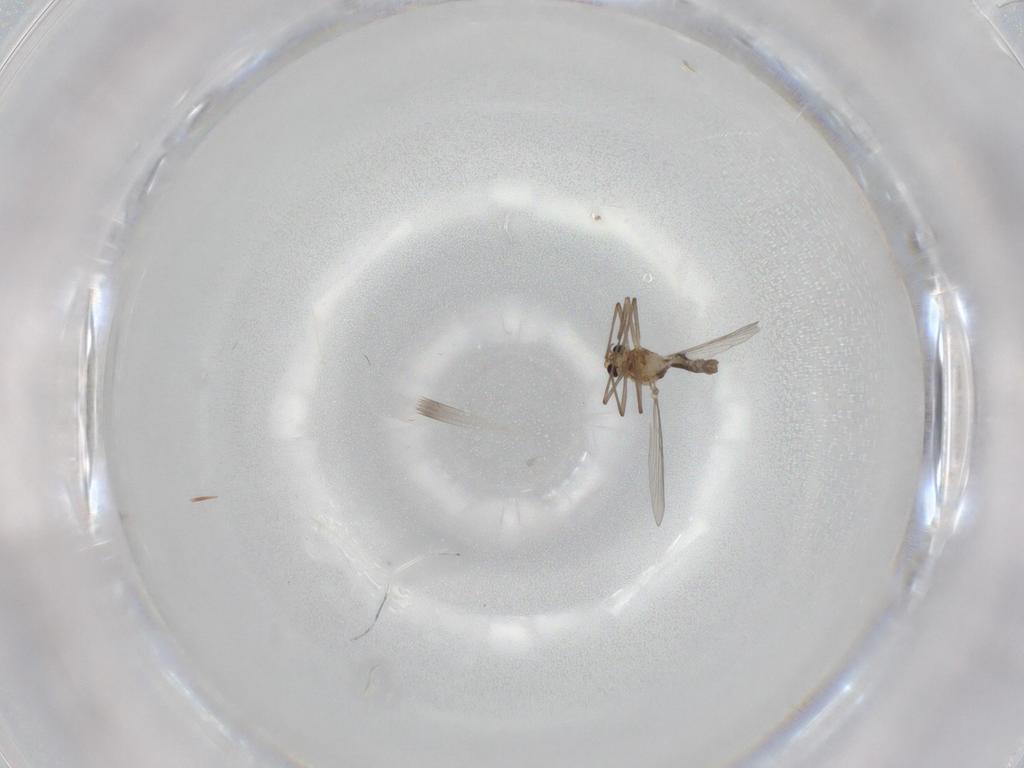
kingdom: Animalia
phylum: Arthropoda
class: Insecta
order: Diptera
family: Chironomidae
